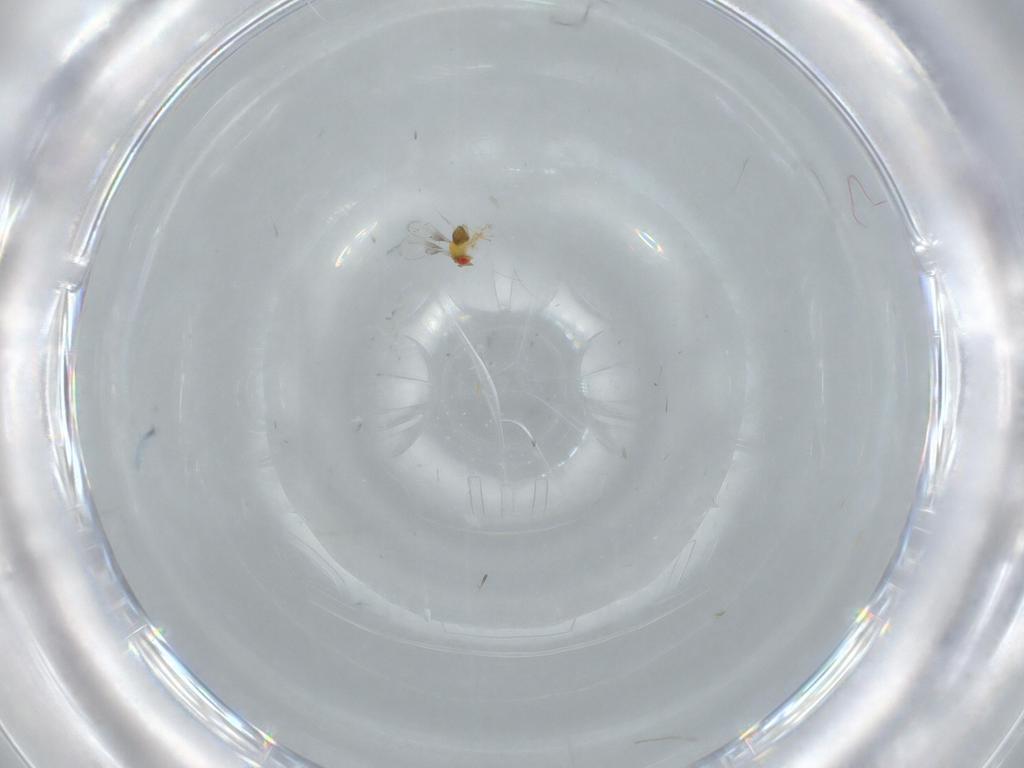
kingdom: Animalia
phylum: Arthropoda
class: Insecta
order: Hymenoptera
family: Trichogrammatidae
